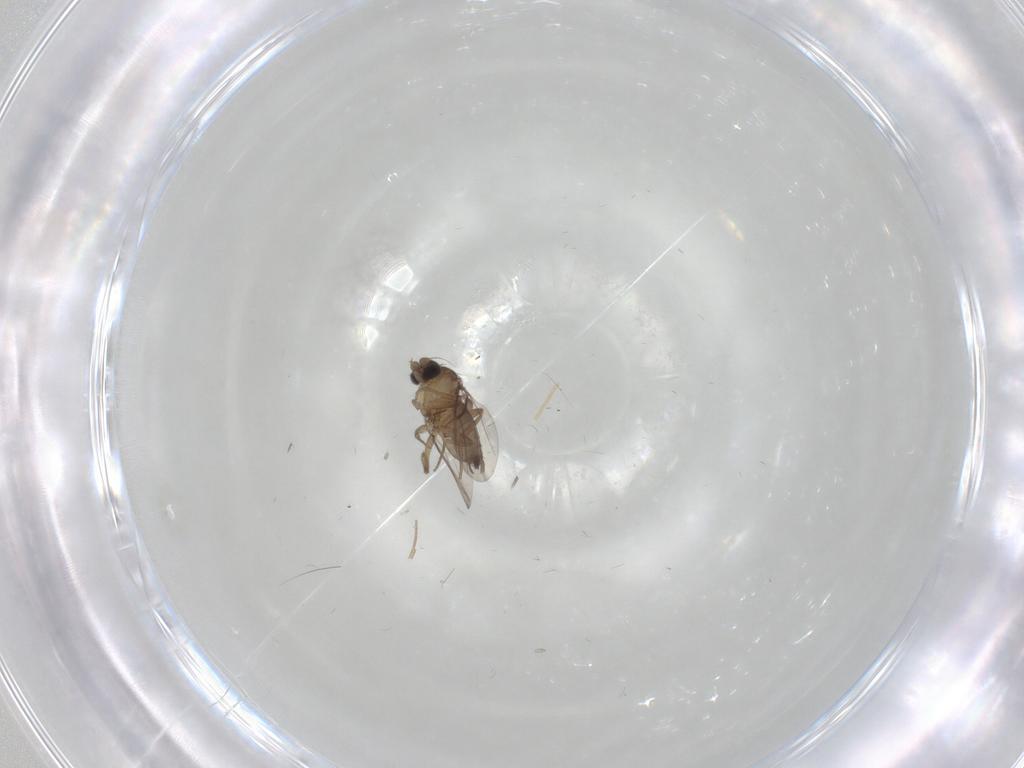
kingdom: Animalia
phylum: Arthropoda
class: Insecta
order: Diptera
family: Phoridae
